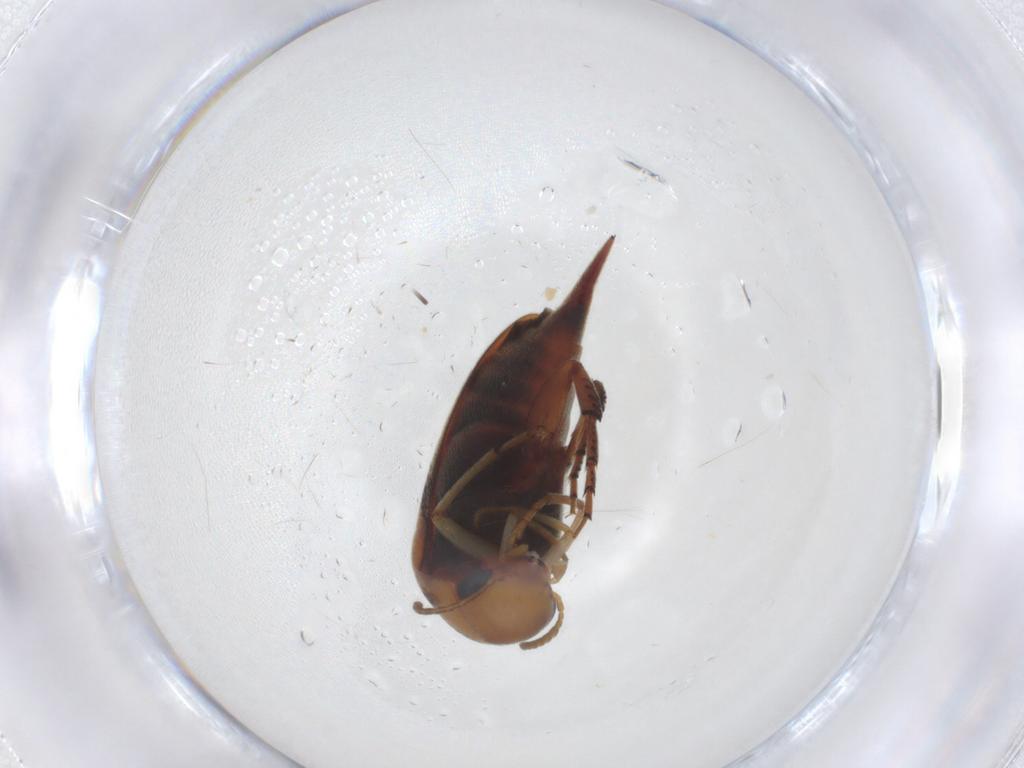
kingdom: Animalia
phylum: Arthropoda
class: Insecta
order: Coleoptera
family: Mordellidae
